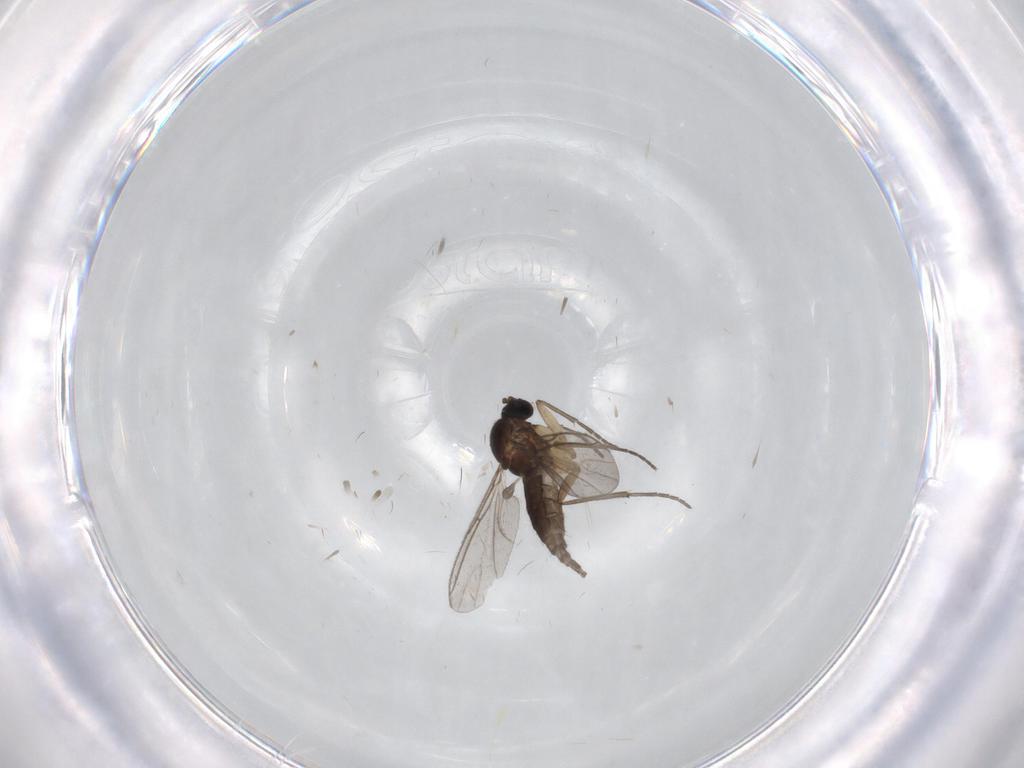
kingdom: Animalia
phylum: Arthropoda
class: Insecta
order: Diptera
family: Sciaridae
